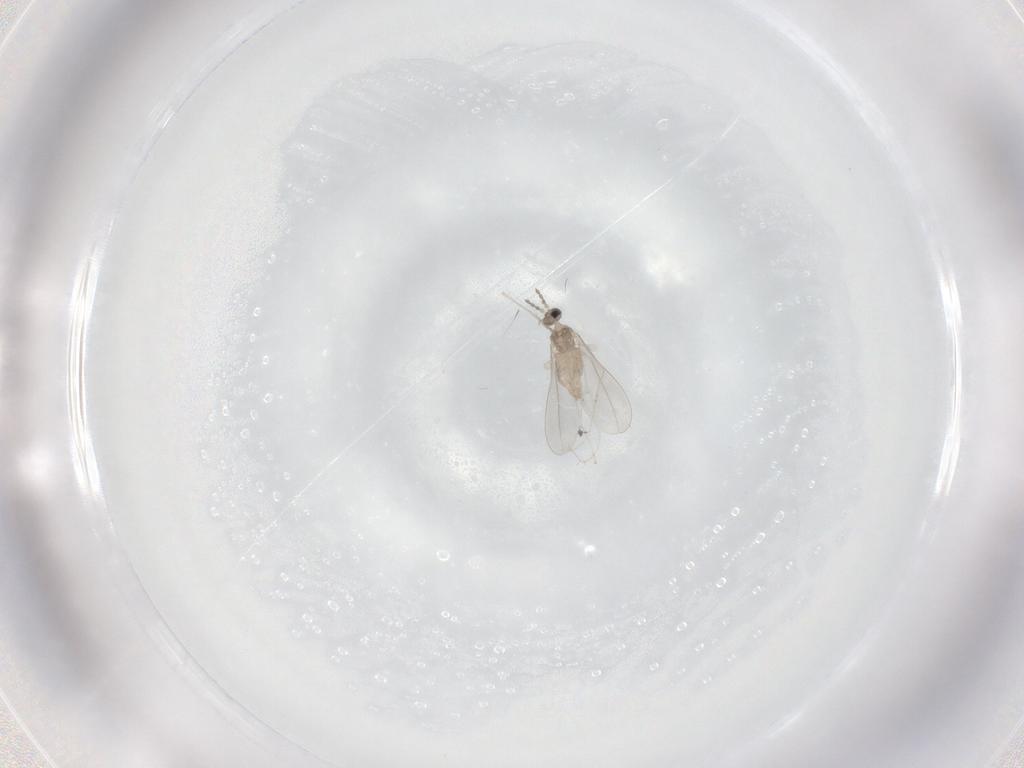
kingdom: Animalia
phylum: Arthropoda
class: Insecta
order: Diptera
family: Cecidomyiidae
